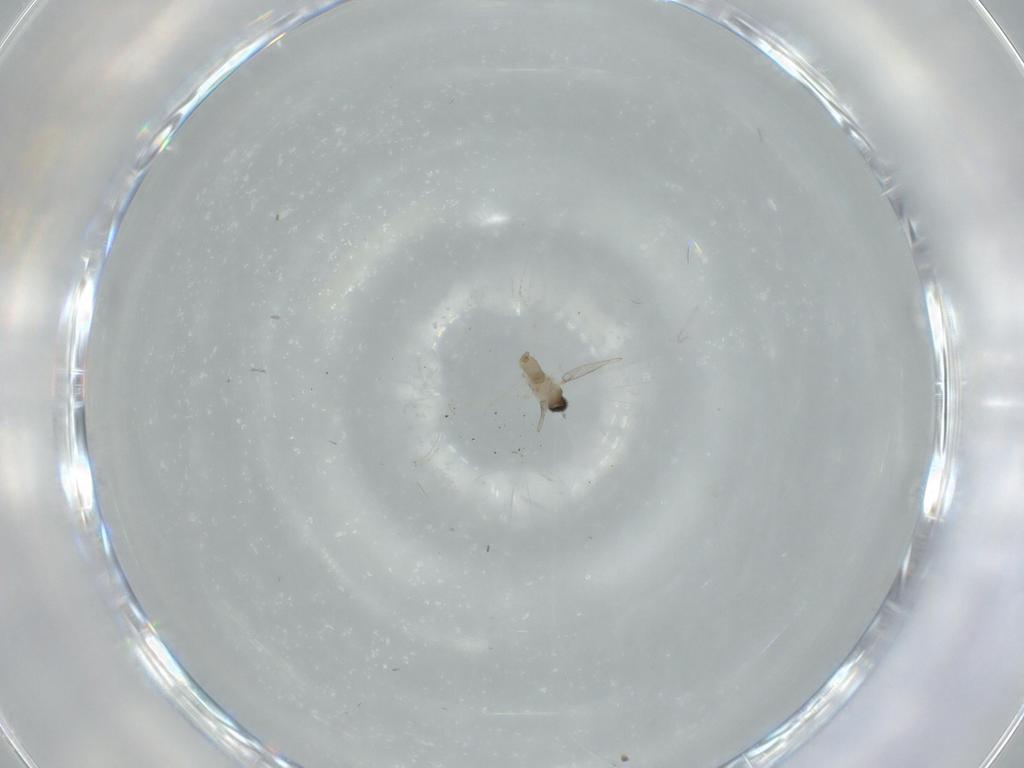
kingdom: Animalia
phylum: Arthropoda
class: Insecta
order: Diptera
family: Cecidomyiidae
